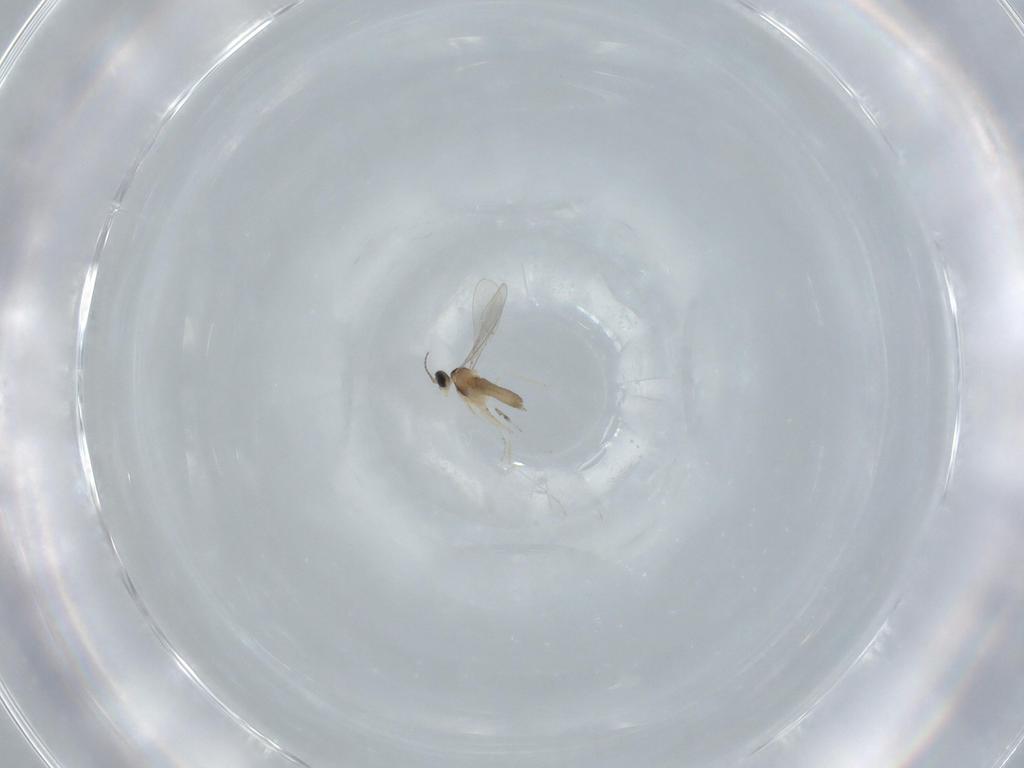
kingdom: Animalia
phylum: Arthropoda
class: Insecta
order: Diptera
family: Drosophilidae
